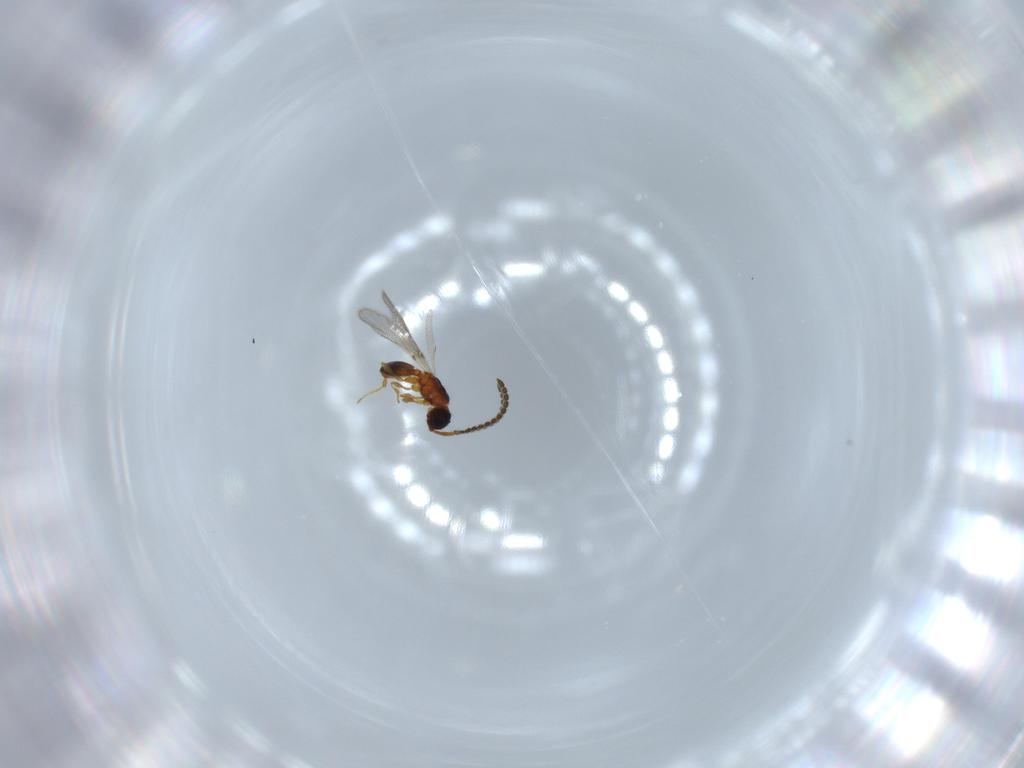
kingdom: Animalia
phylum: Arthropoda
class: Insecta
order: Hymenoptera
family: Diapriidae
